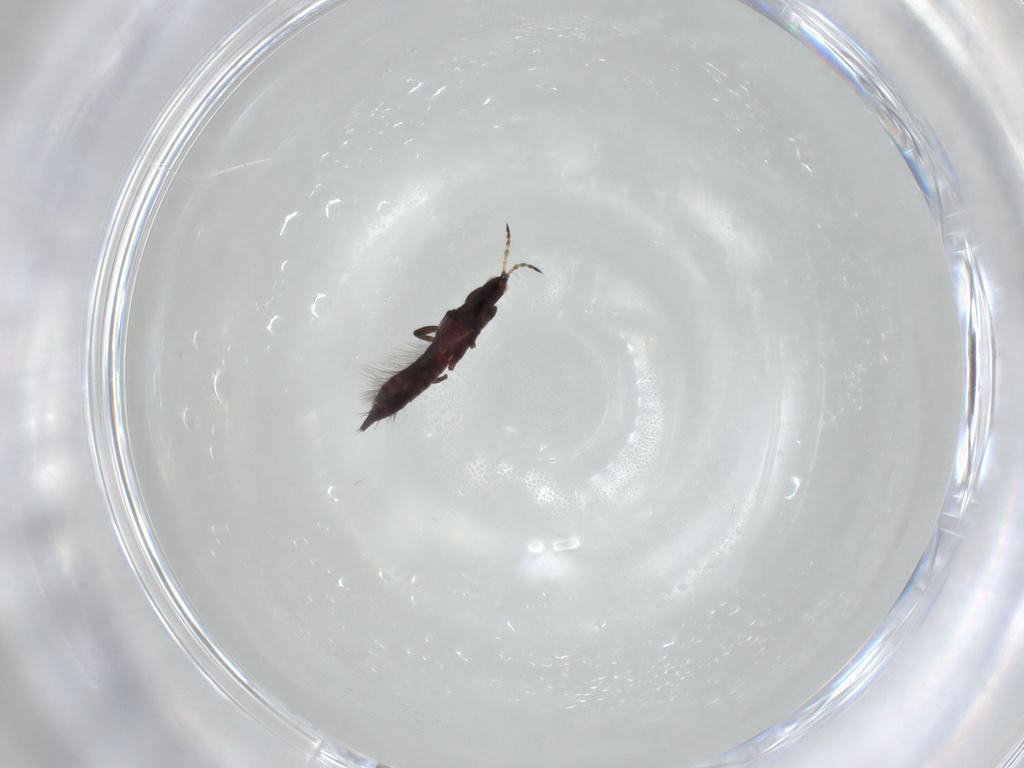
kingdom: Animalia
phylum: Arthropoda
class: Insecta
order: Thysanoptera
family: Phlaeothripidae
